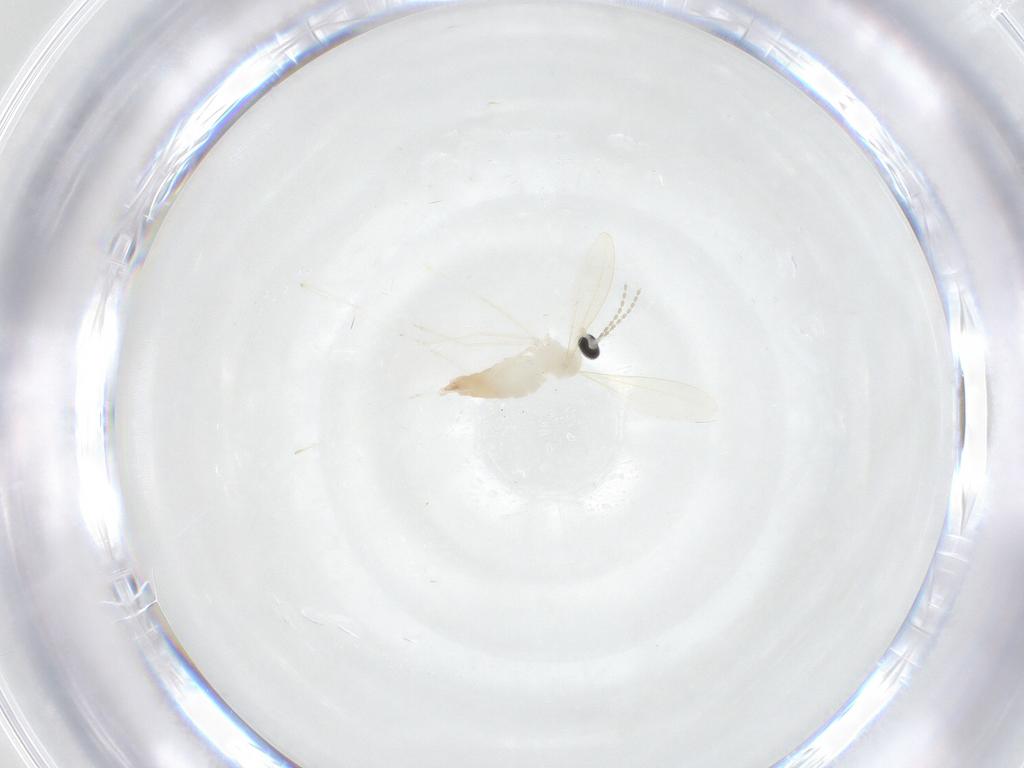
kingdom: Animalia
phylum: Arthropoda
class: Insecta
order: Diptera
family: Cecidomyiidae
